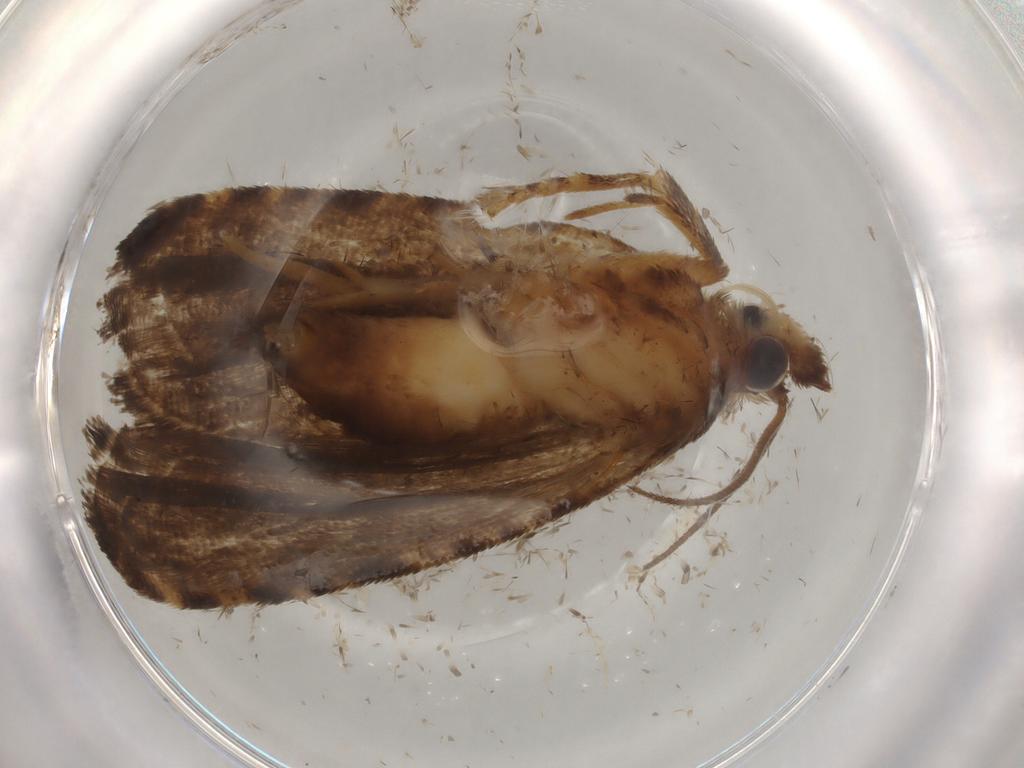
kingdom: Animalia
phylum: Arthropoda
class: Insecta
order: Lepidoptera
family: Tortricidae
